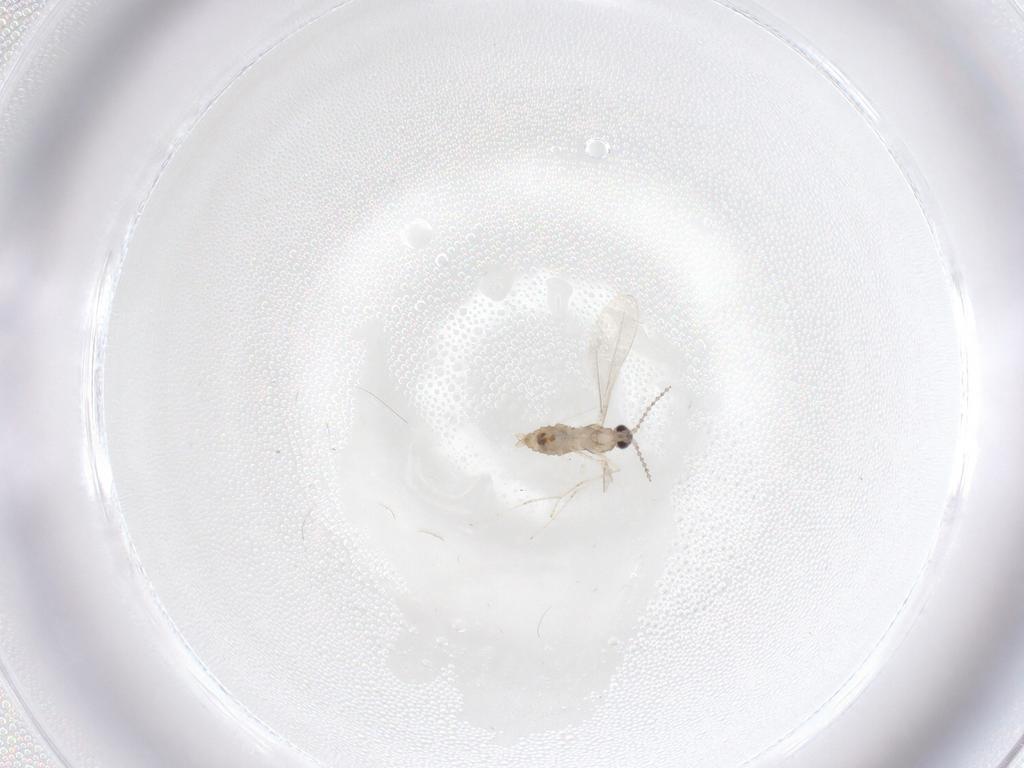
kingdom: Animalia
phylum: Arthropoda
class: Insecta
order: Diptera
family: Cecidomyiidae
